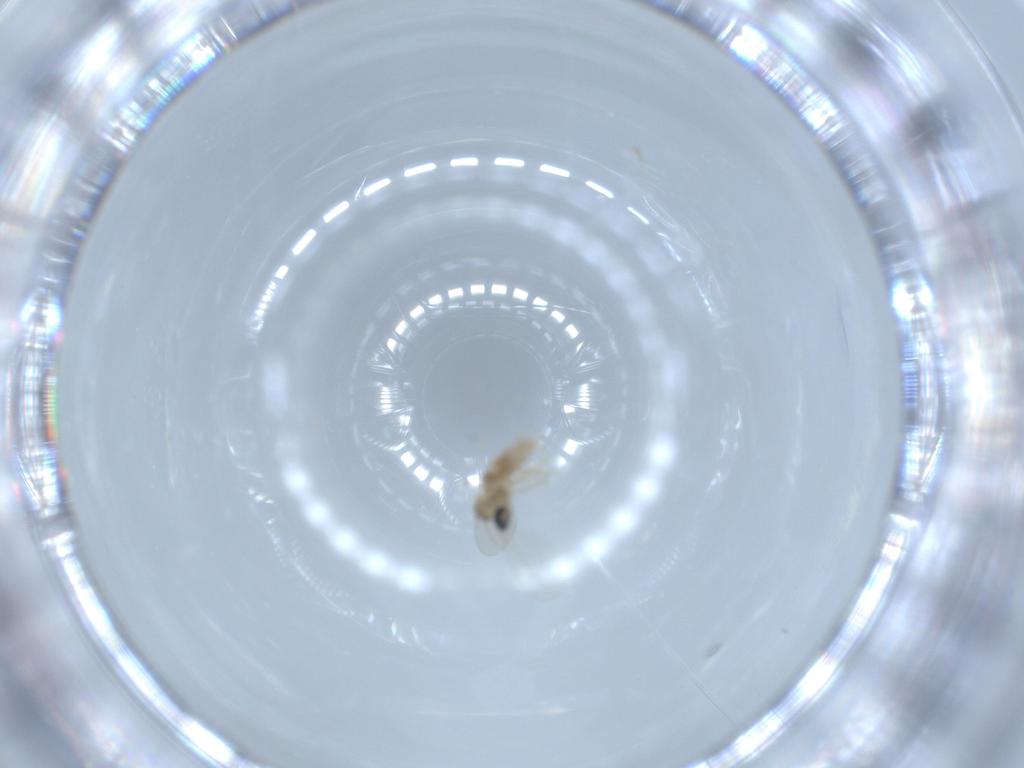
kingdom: Animalia
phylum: Arthropoda
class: Insecta
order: Diptera
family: Cecidomyiidae
